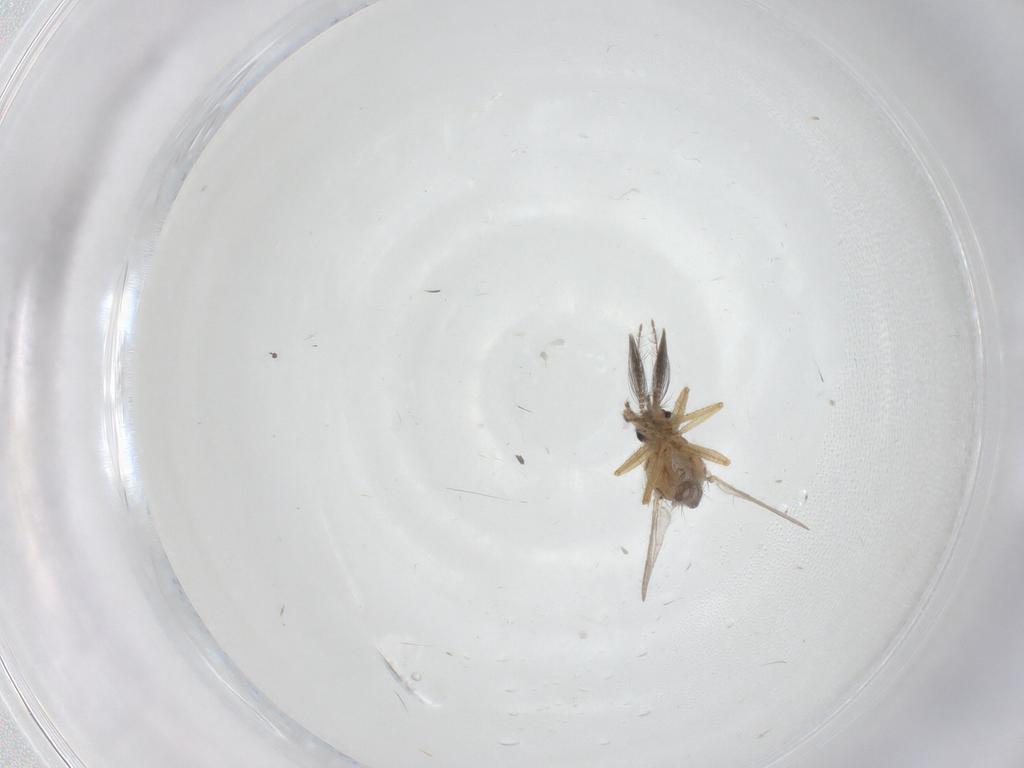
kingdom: Animalia
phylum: Arthropoda
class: Insecta
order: Diptera
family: Ceratopogonidae
